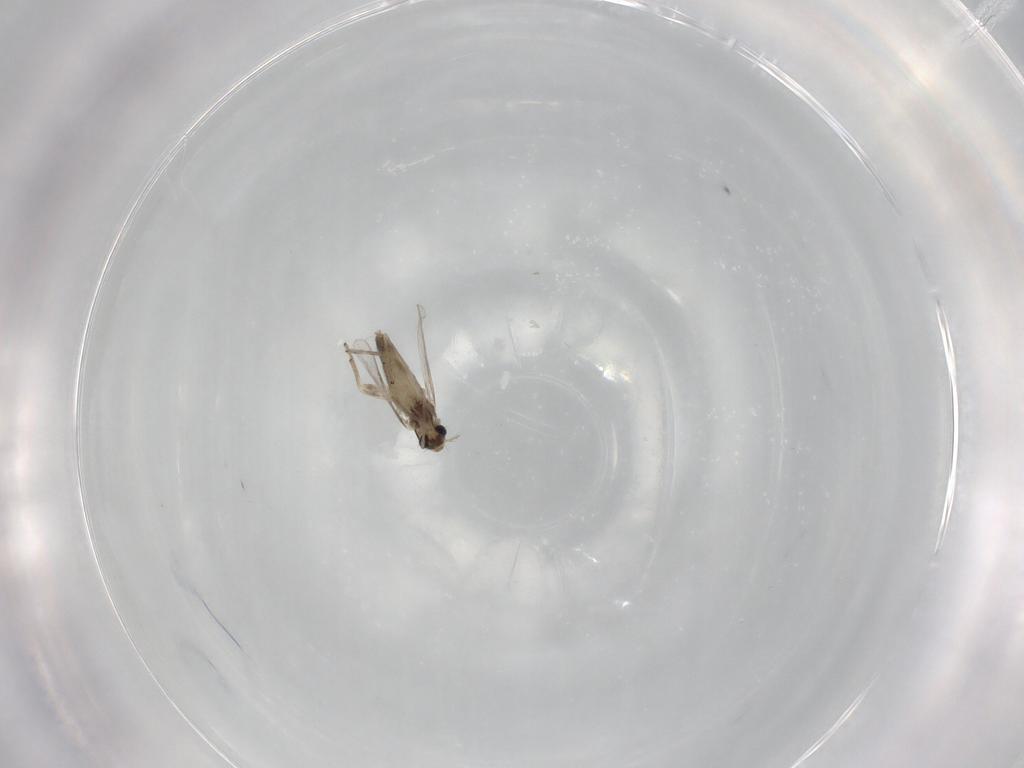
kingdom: Animalia
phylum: Arthropoda
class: Insecta
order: Diptera
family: Chironomidae
